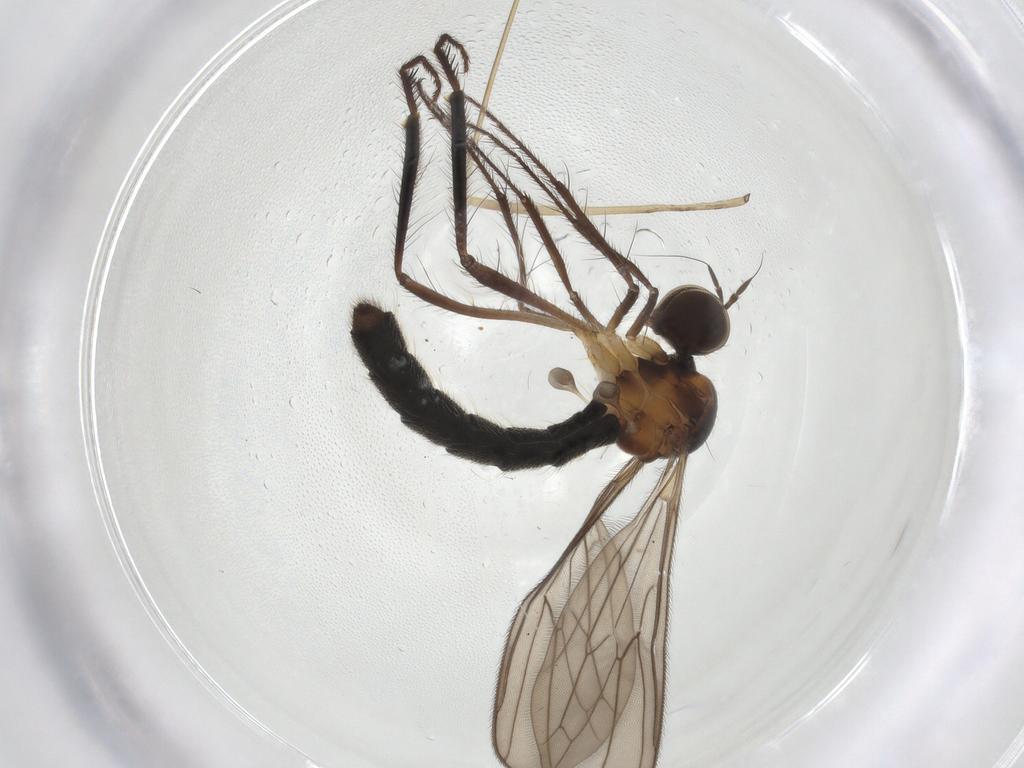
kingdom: Animalia
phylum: Arthropoda
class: Insecta
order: Diptera
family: Hybotidae
